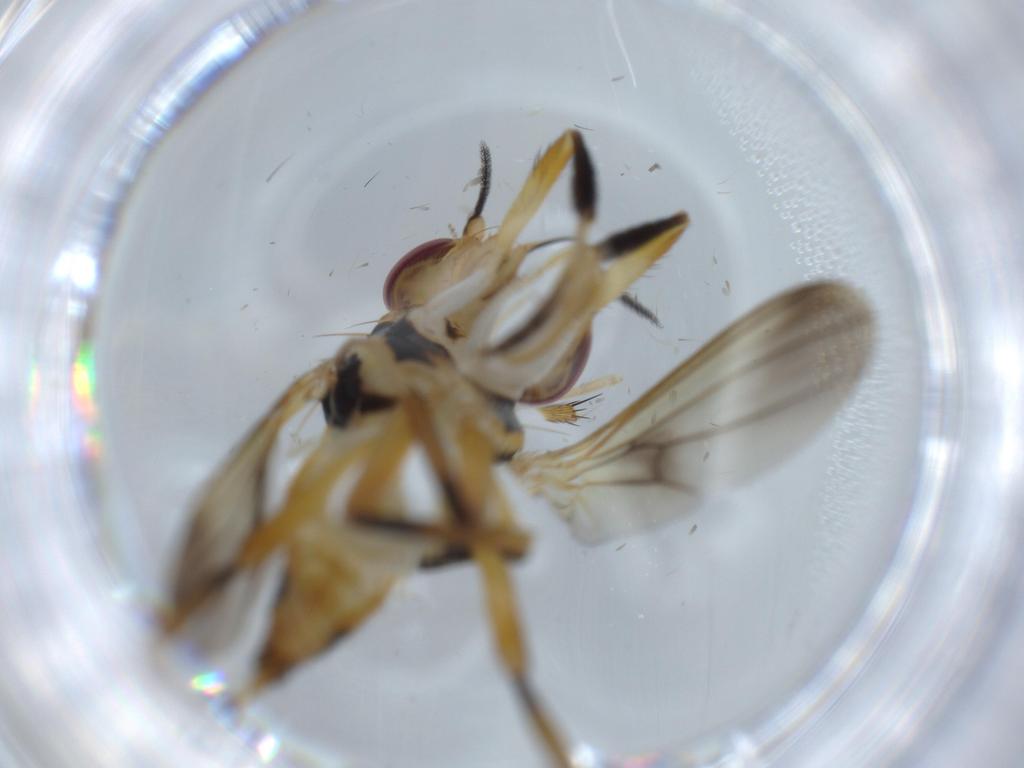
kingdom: Animalia
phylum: Arthropoda
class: Insecta
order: Diptera
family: Clusiidae
